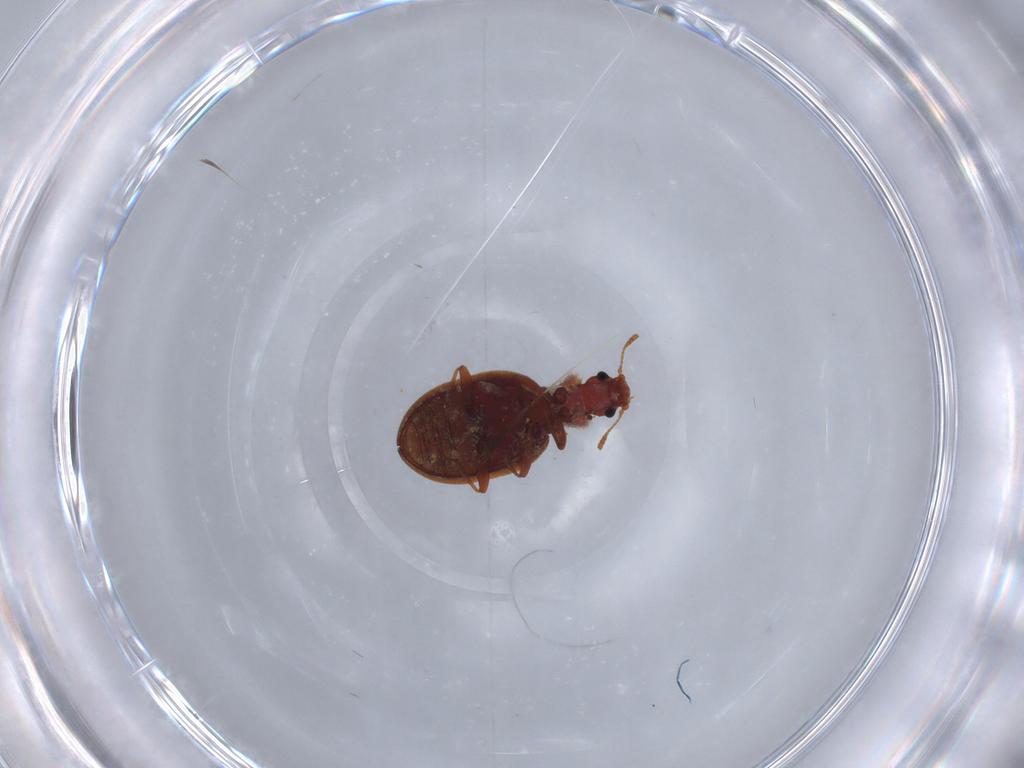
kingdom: Animalia
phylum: Arthropoda
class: Insecta
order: Coleoptera
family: Latridiidae
